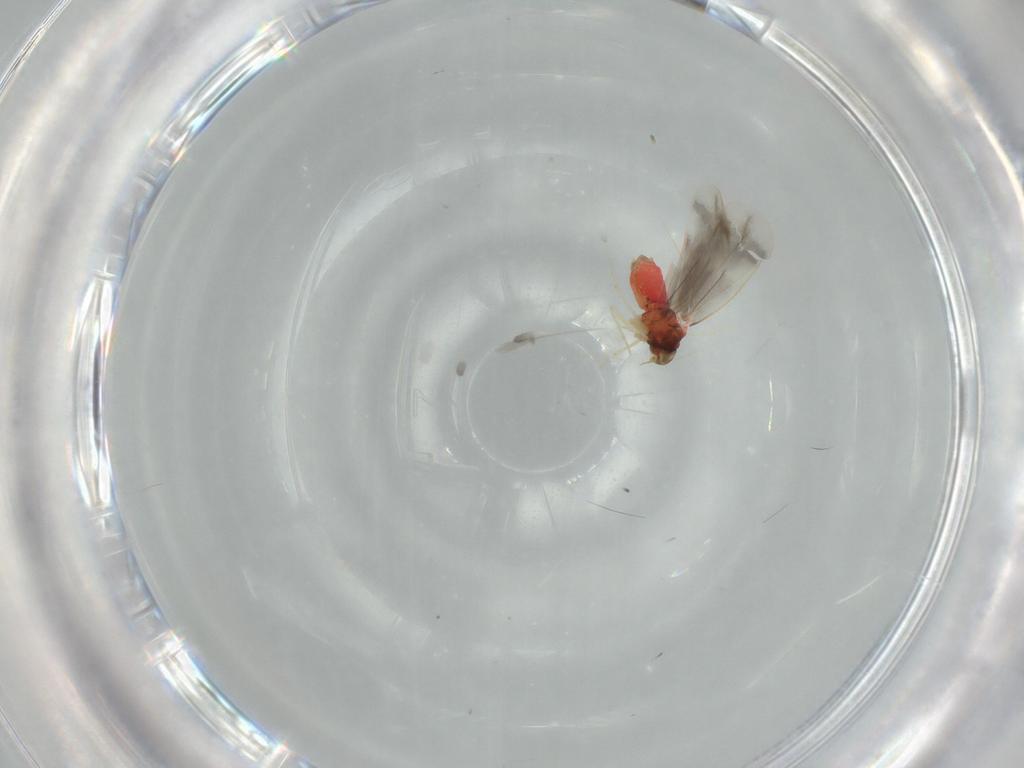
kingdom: Animalia
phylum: Arthropoda
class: Insecta
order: Hemiptera
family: Aleyrodidae
